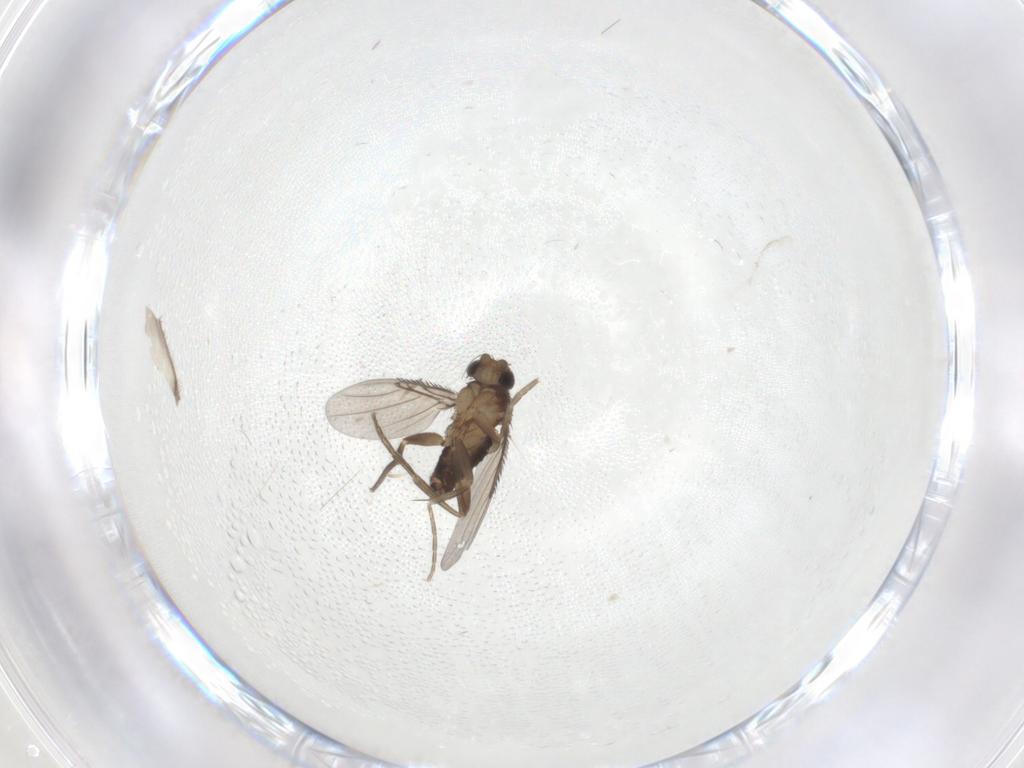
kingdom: Animalia
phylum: Arthropoda
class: Insecta
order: Diptera
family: Phoridae
